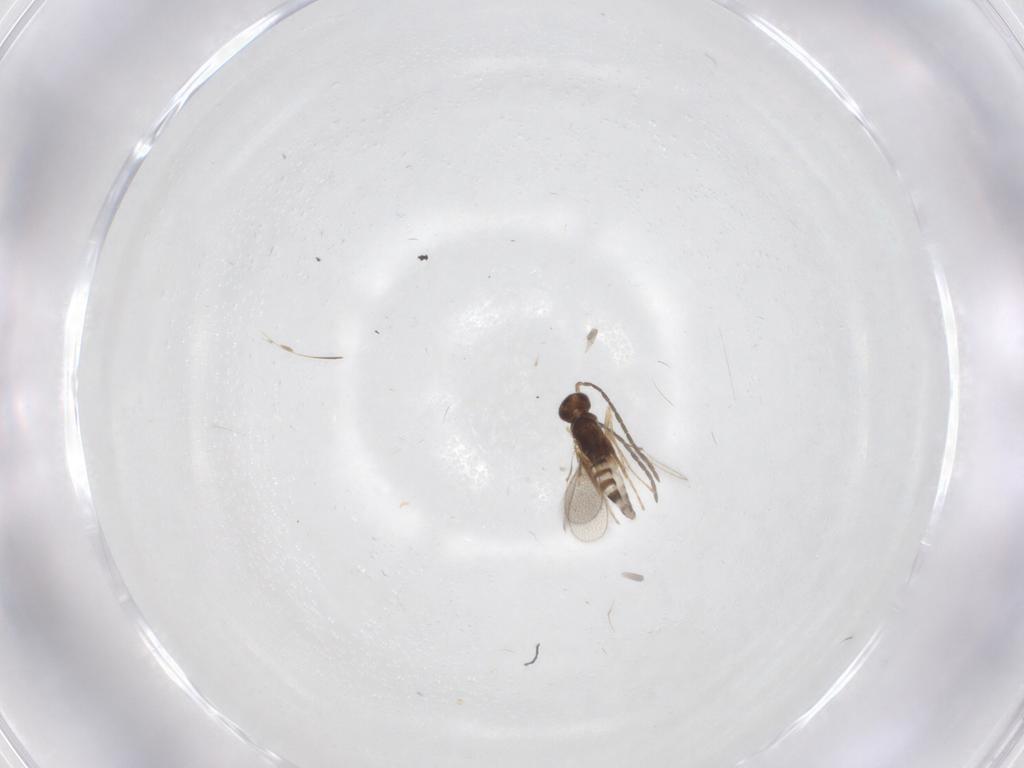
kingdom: Animalia
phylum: Arthropoda
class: Insecta
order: Hymenoptera
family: Mymaridae
